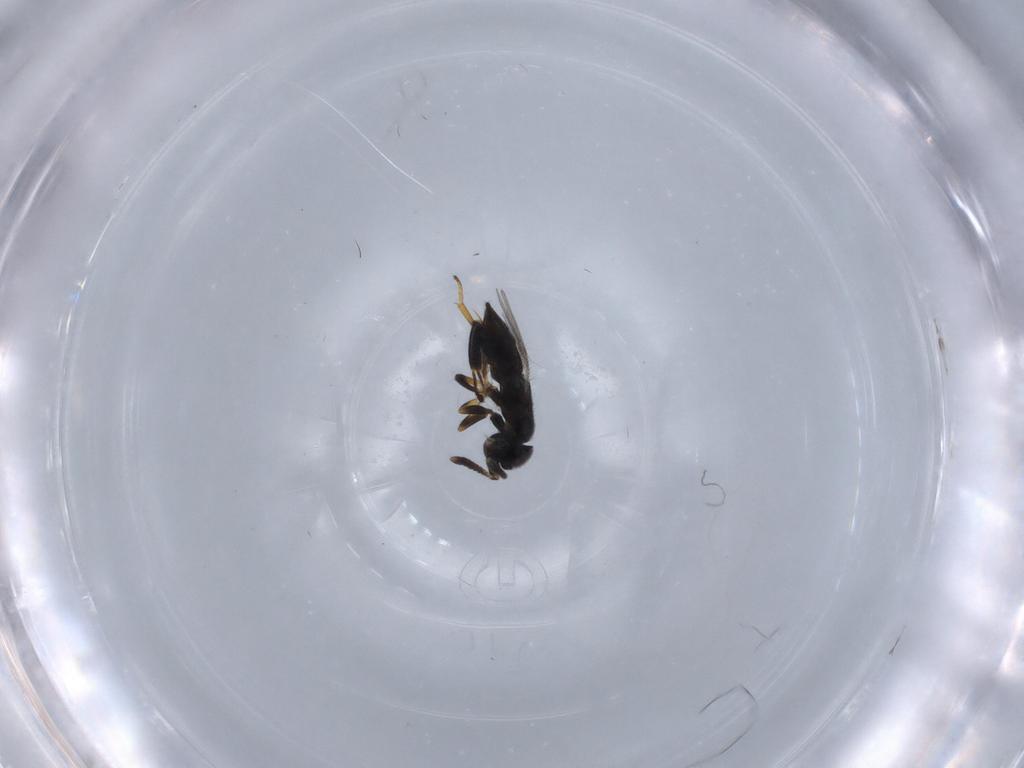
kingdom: Animalia
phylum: Arthropoda
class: Insecta
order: Hymenoptera
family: Encyrtidae
